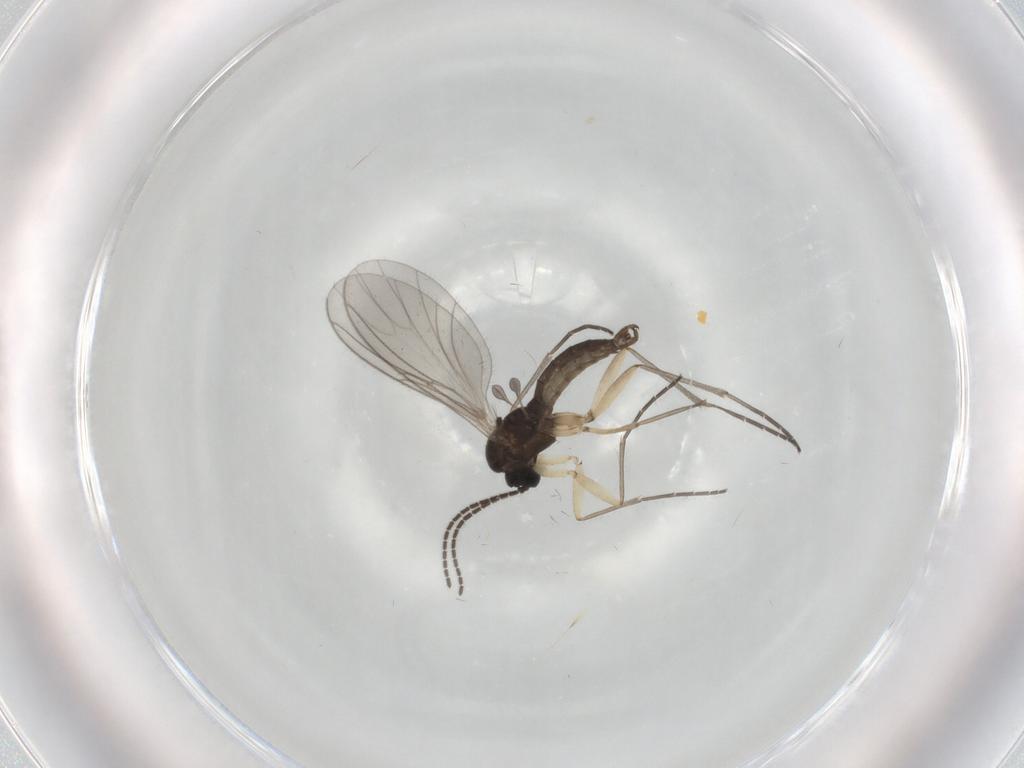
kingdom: Animalia
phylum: Arthropoda
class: Insecta
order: Diptera
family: Sciaridae
